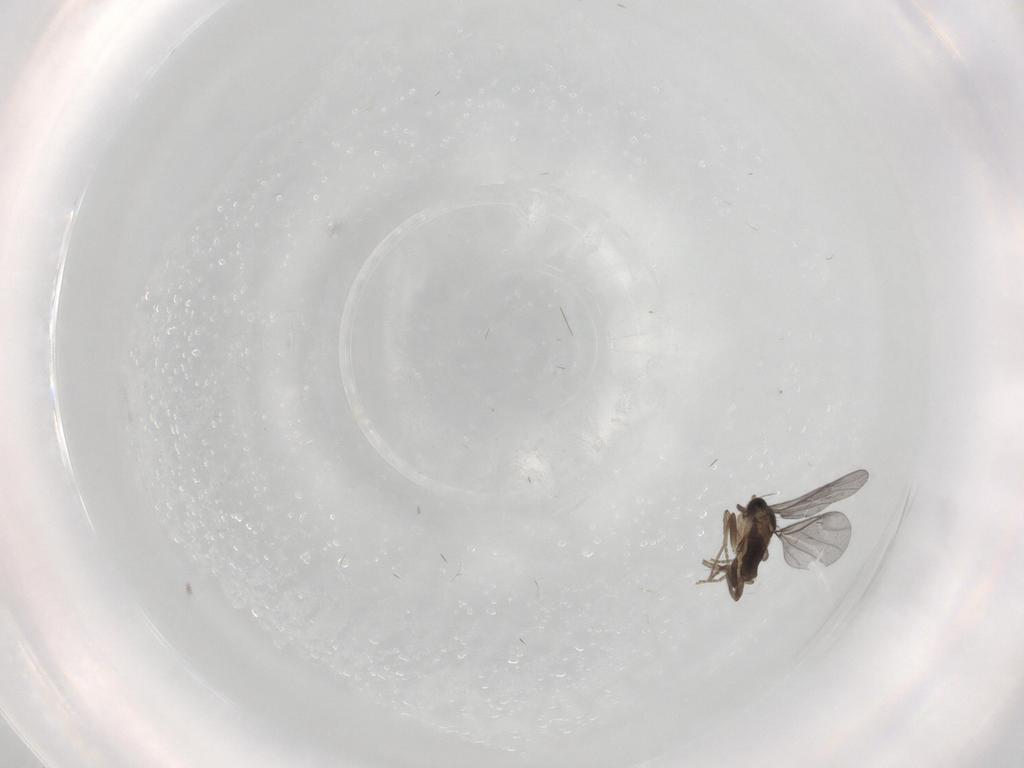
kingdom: Animalia
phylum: Arthropoda
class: Insecta
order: Diptera
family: Cecidomyiidae
